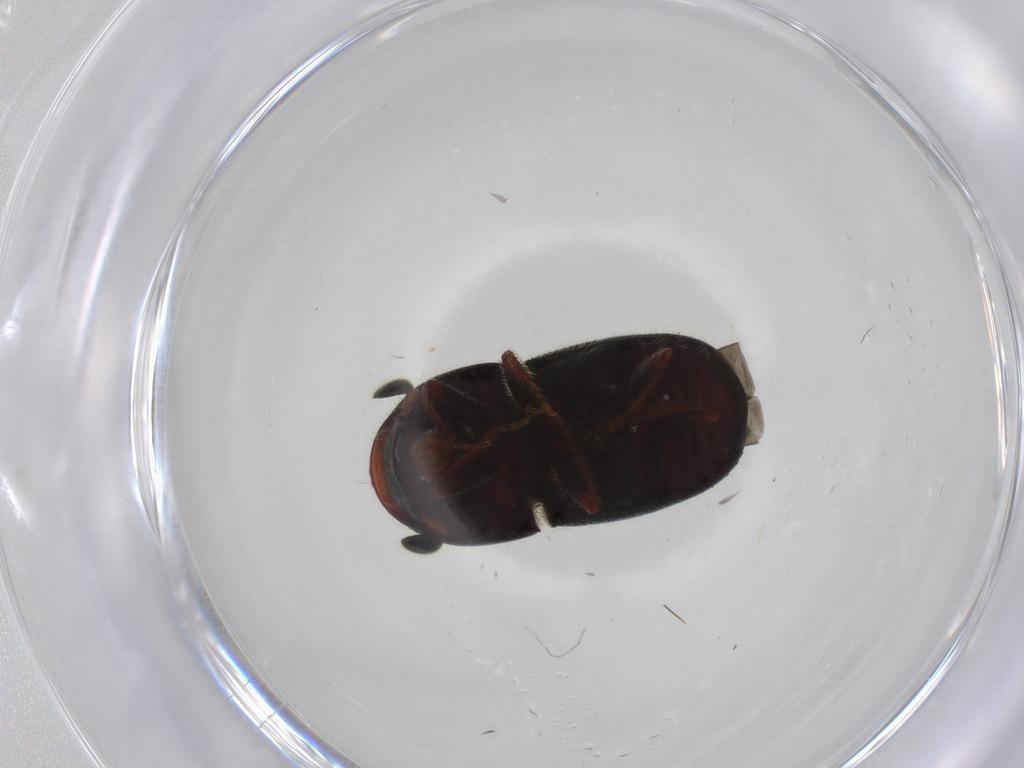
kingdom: Animalia
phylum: Arthropoda
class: Insecta
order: Coleoptera
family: Curculionidae
